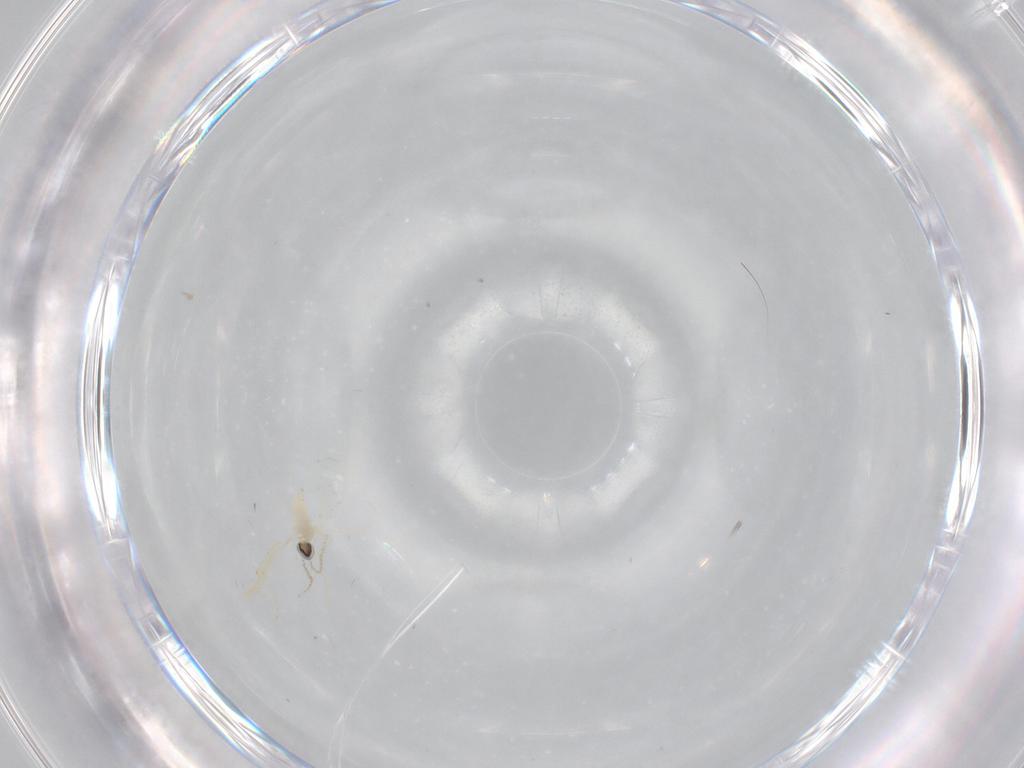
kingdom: Animalia
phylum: Arthropoda
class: Insecta
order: Diptera
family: Cecidomyiidae
